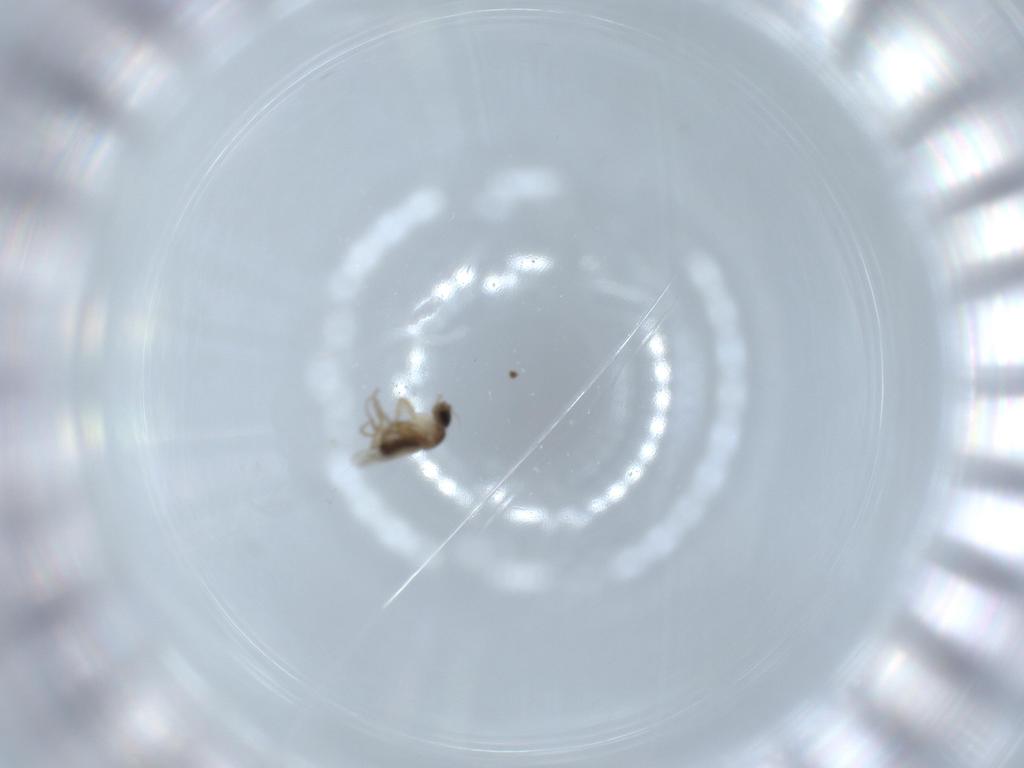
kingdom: Animalia
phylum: Arthropoda
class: Insecta
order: Diptera
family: Phoridae
